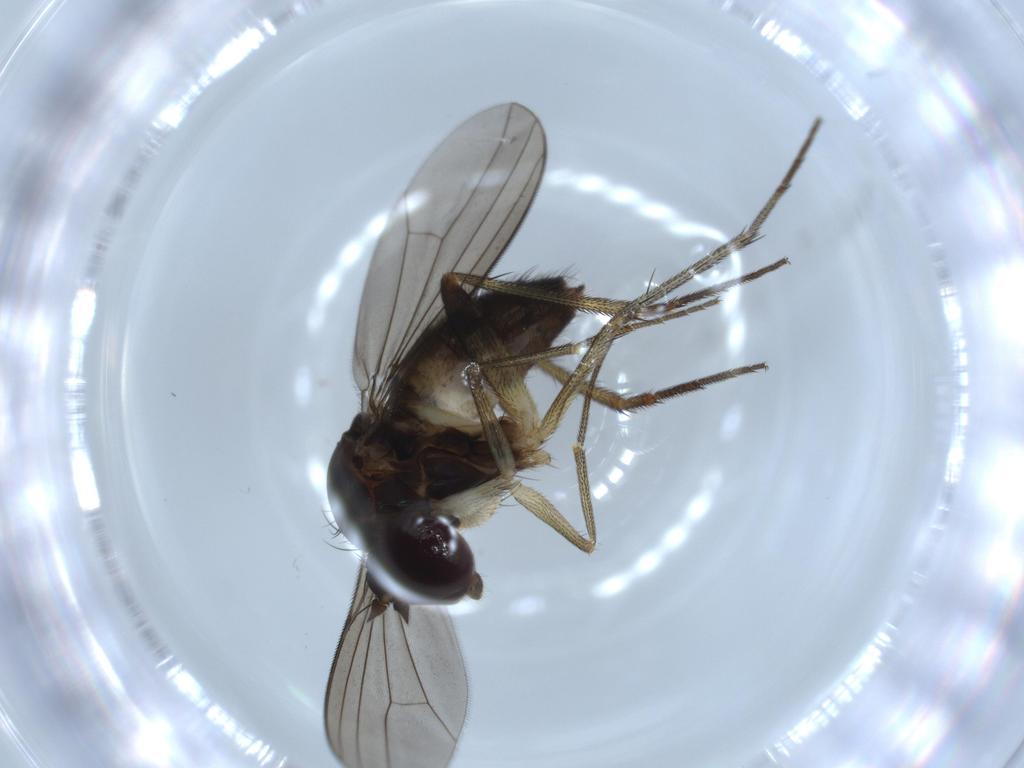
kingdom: Animalia
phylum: Arthropoda
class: Insecta
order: Diptera
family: Dolichopodidae
